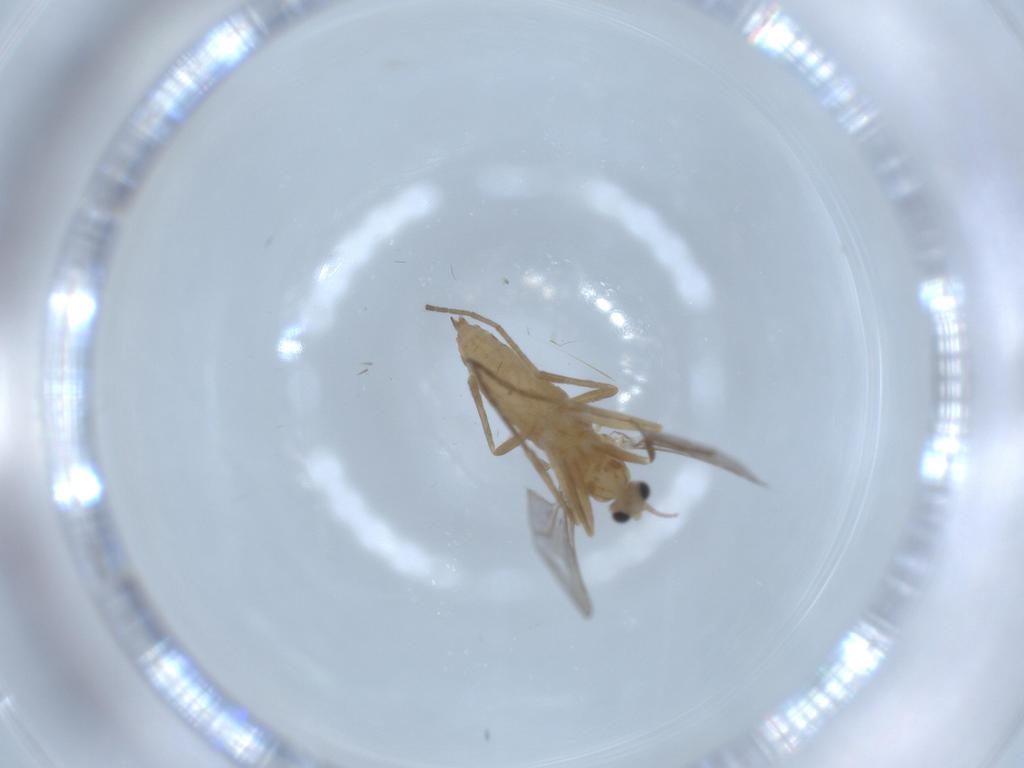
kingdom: Animalia
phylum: Arthropoda
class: Insecta
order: Diptera
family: Cecidomyiidae
